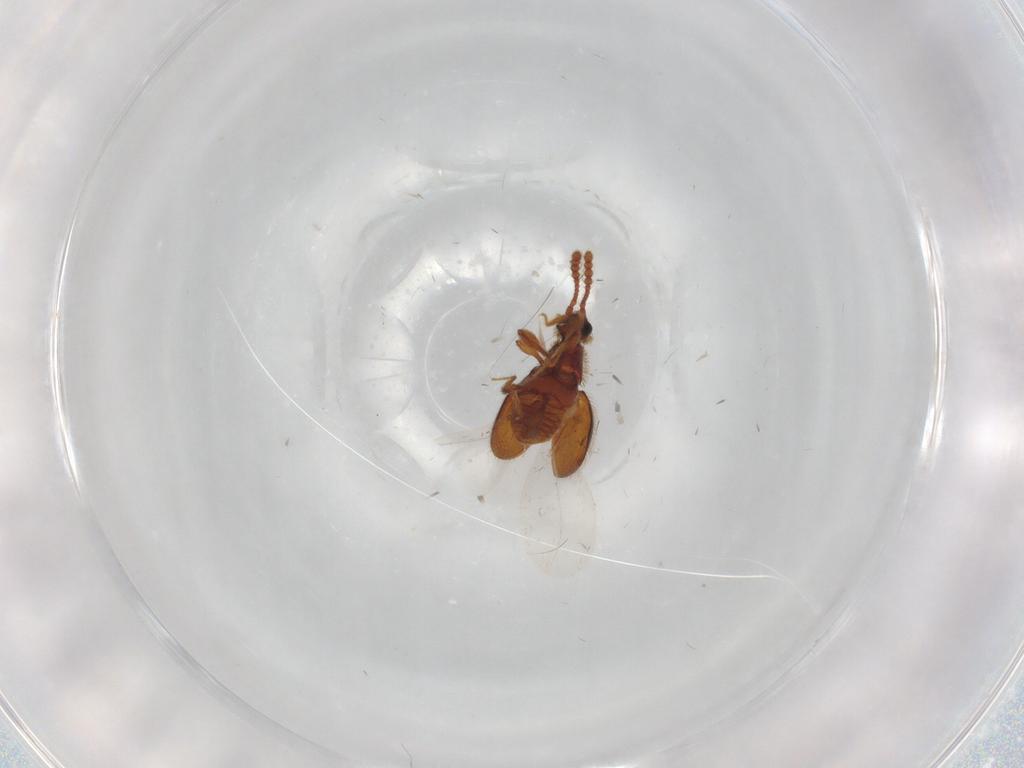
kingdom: Animalia
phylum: Arthropoda
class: Insecta
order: Coleoptera
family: Staphylinidae
